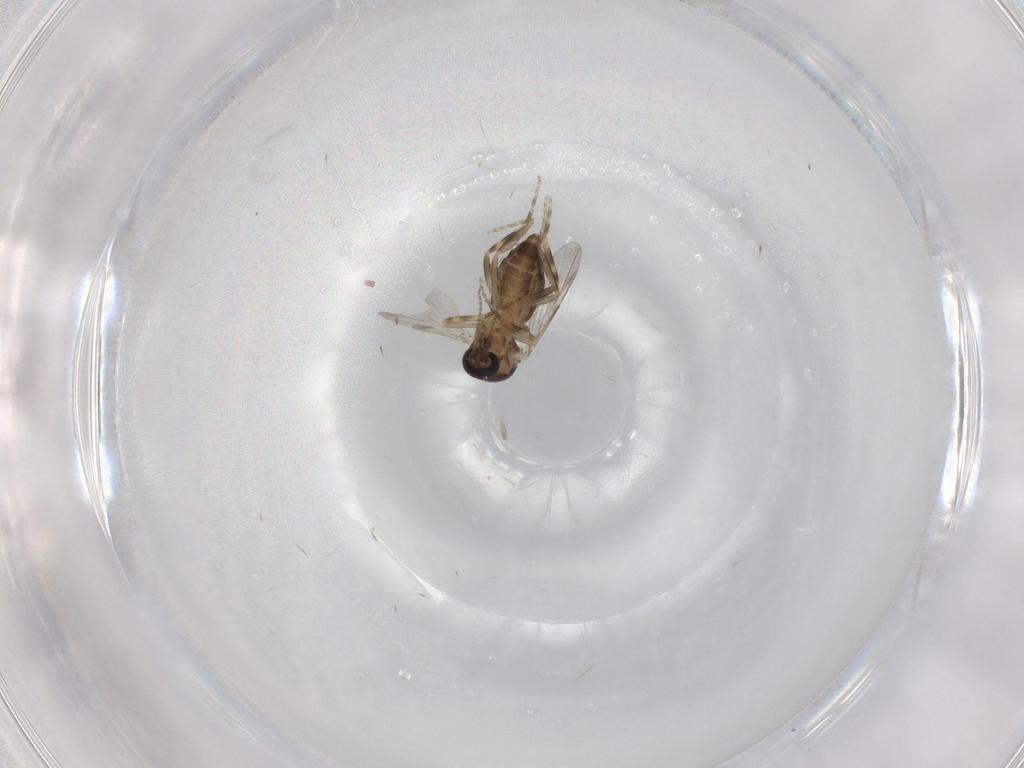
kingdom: Animalia
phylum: Arthropoda
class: Insecta
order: Diptera
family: Ceratopogonidae
